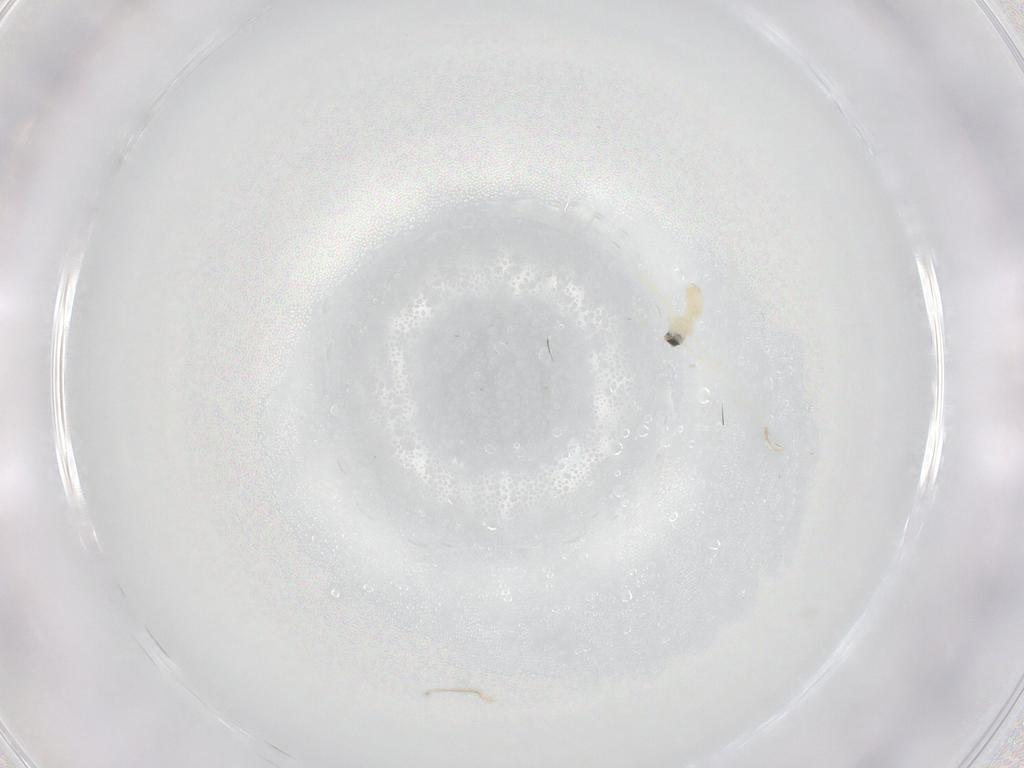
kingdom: Animalia
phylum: Arthropoda
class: Insecta
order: Diptera
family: Cecidomyiidae
